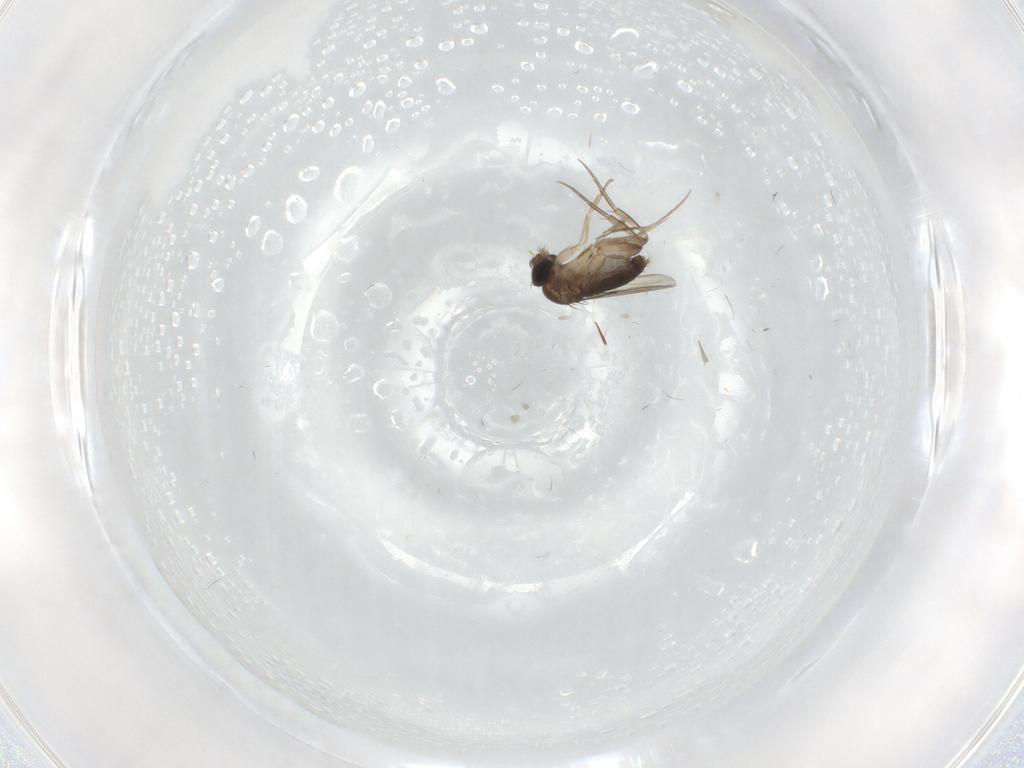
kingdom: Animalia
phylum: Arthropoda
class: Insecta
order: Diptera
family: Phoridae
